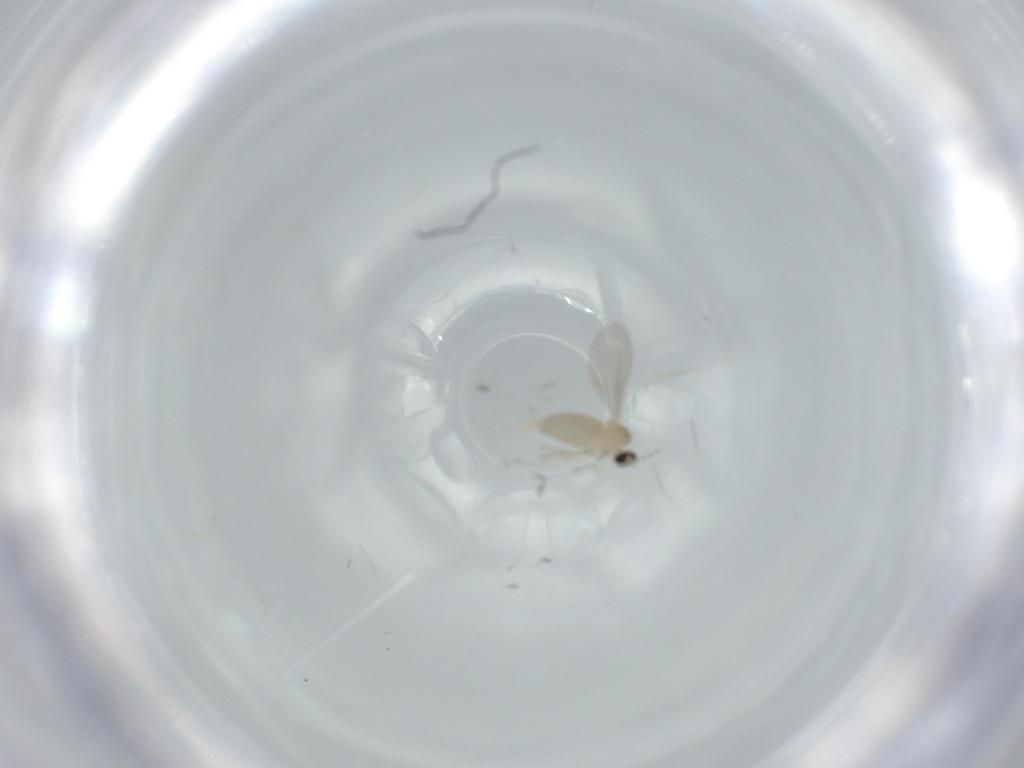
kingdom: Animalia
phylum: Arthropoda
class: Insecta
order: Diptera
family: Cecidomyiidae
